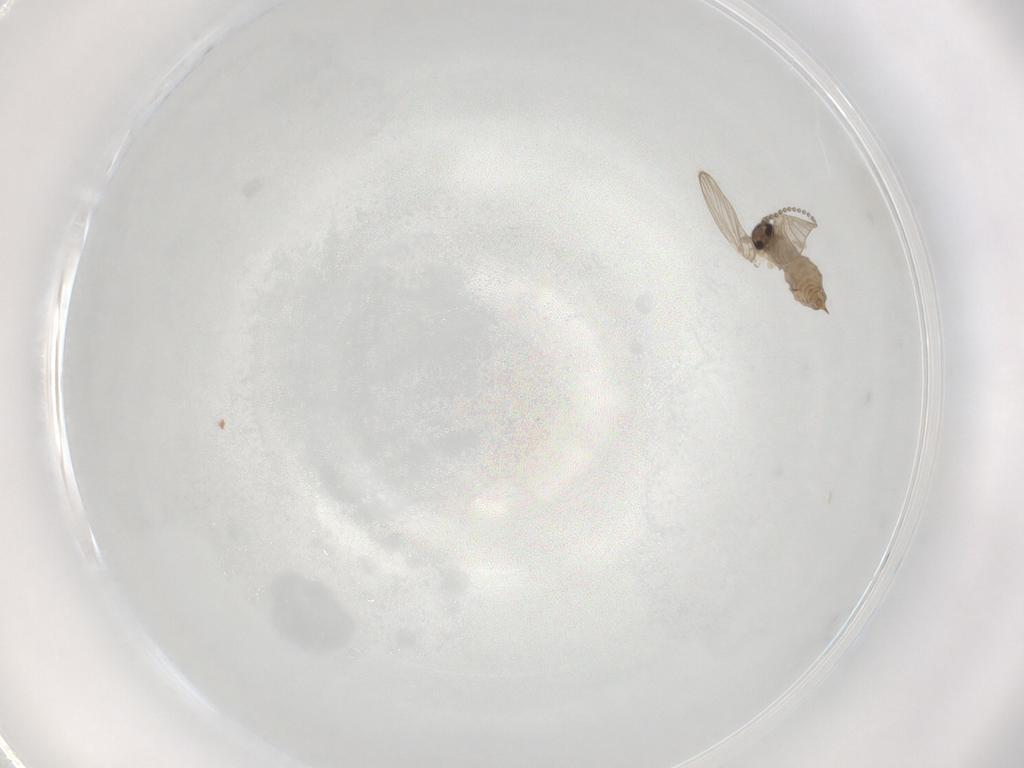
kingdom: Animalia
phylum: Arthropoda
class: Insecta
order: Diptera
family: Psychodidae
